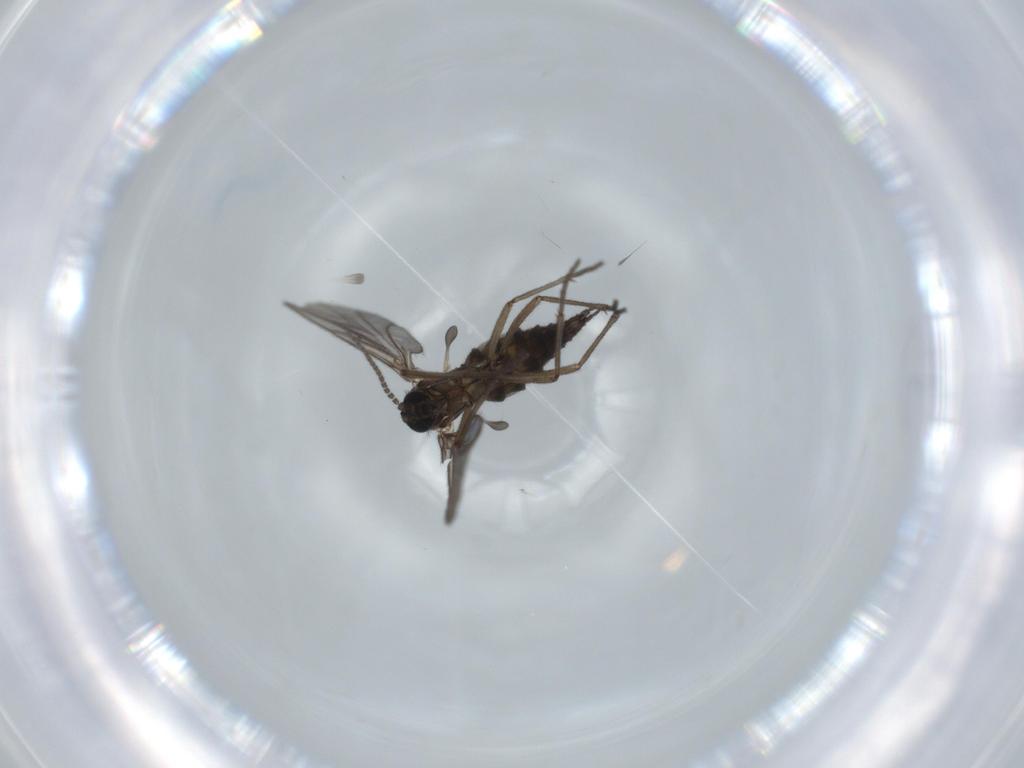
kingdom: Animalia
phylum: Arthropoda
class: Insecta
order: Diptera
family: Sciaridae
